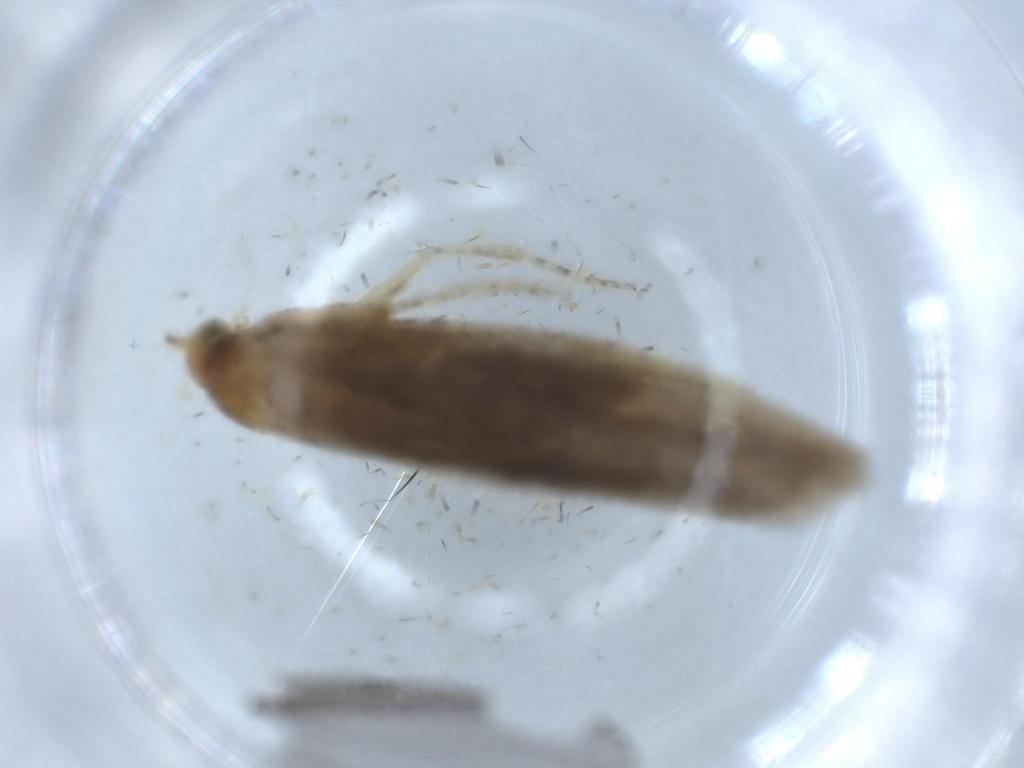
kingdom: Animalia
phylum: Arthropoda
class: Insecta
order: Lepidoptera
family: Argyresthiidae
